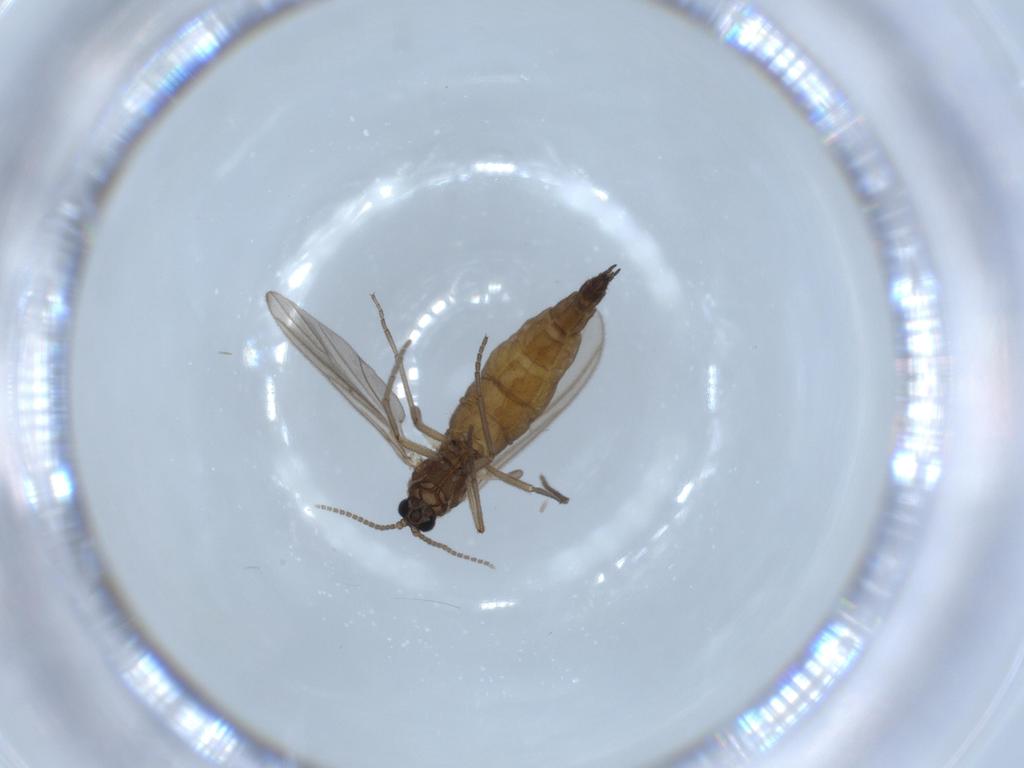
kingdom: Animalia
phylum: Arthropoda
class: Insecta
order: Diptera
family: Sciaridae
